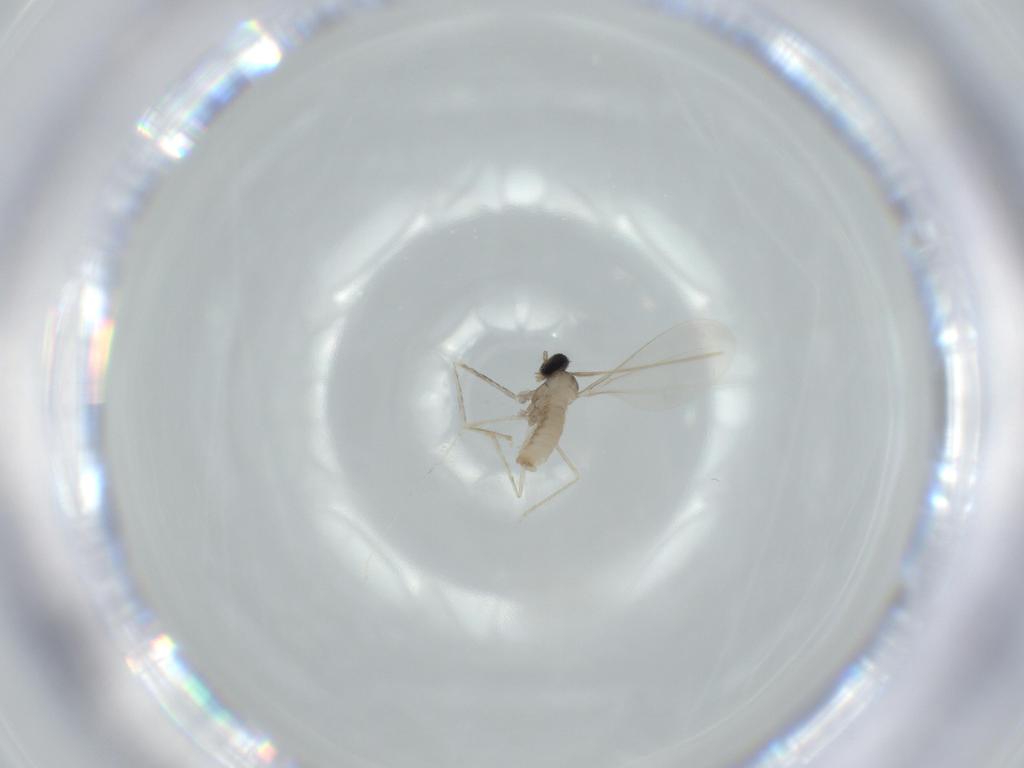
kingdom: Animalia
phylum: Arthropoda
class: Insecta
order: Diptera
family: Cecidomyiidae
